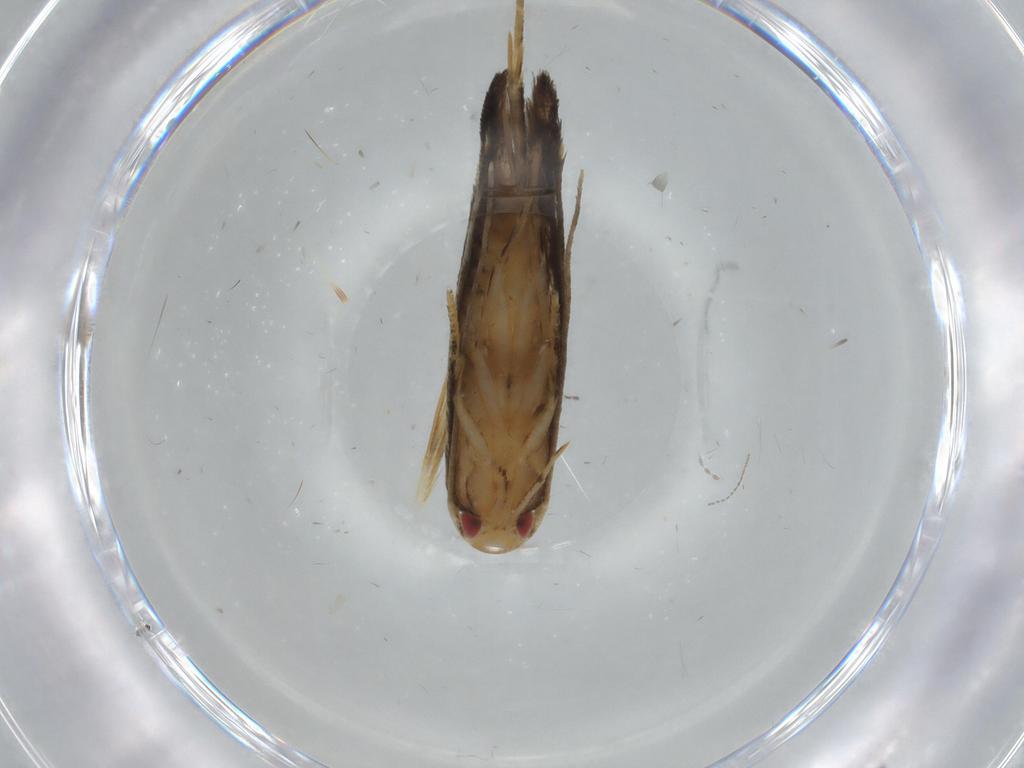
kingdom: Animalia
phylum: Arthropoda
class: Insecta
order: Lepidoptera
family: Momphidae
